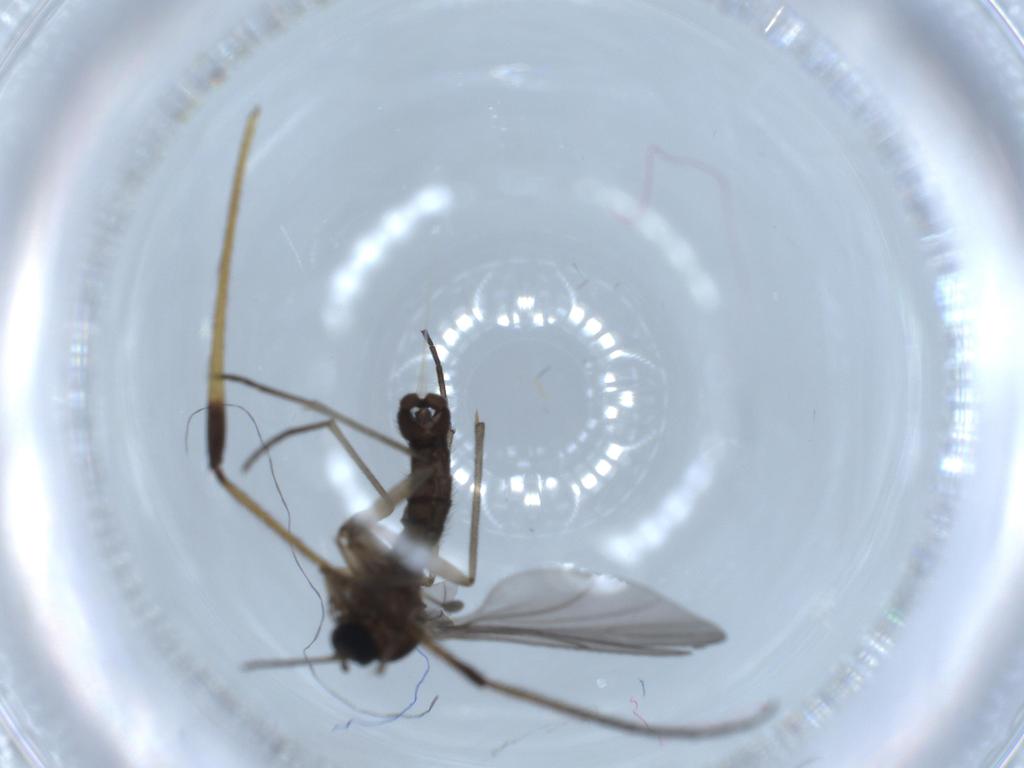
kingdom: Animalia
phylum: Arthropoda
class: Insecta
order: Diptera
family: Sciaridae
